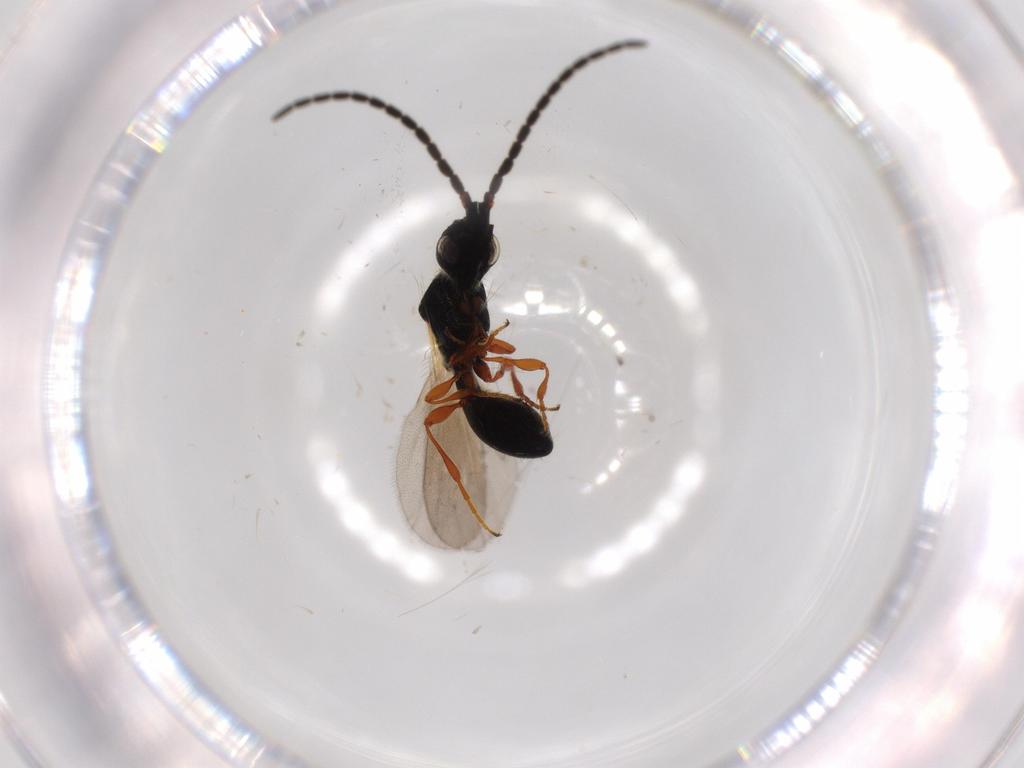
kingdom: Animalia
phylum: Arthropoda
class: Insecta
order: Hymenoptera
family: Diapriidae
